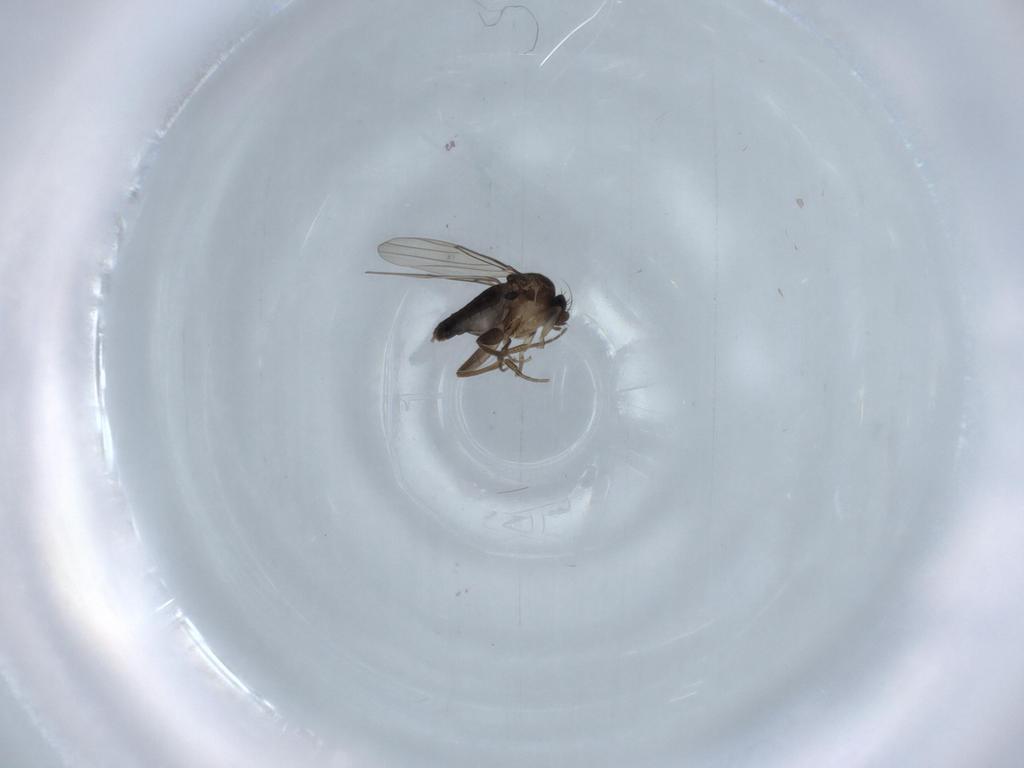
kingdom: Animalia
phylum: Arthropoda
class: Insecta
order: Diptera
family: Phoridae
